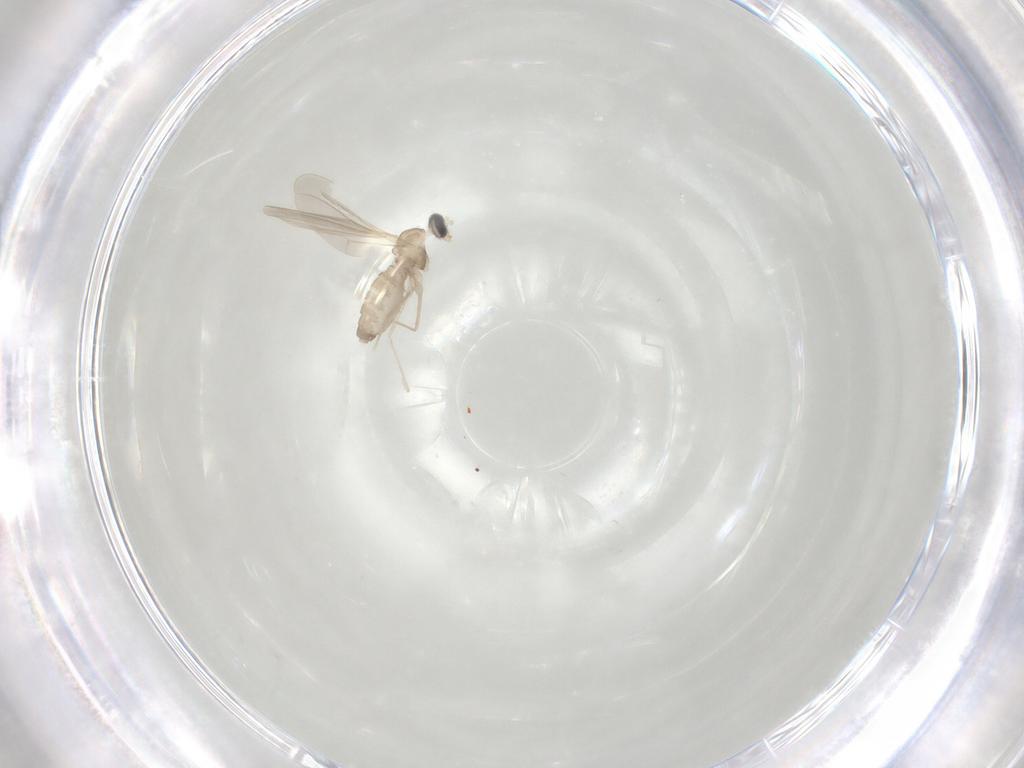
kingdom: Animalia
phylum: Arthropoda
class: Insecta
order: Diptera
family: Cecidomyiidae
